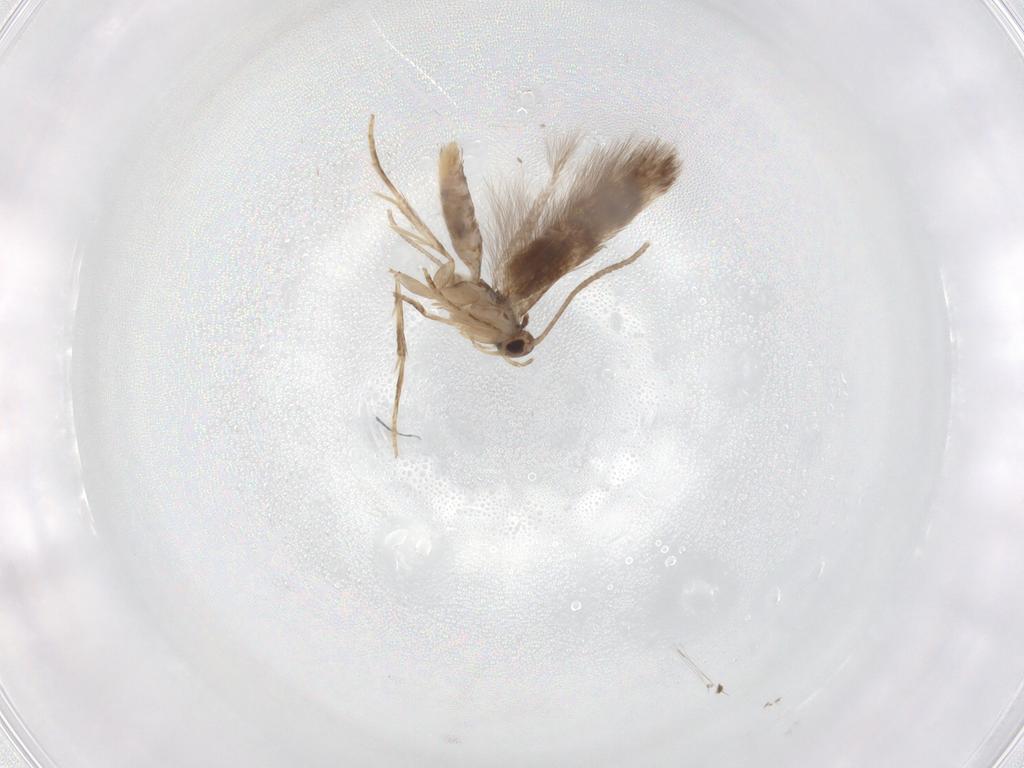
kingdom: Animalia
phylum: Arthropoda
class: Insecta
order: Lepidoptera
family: Elachistidae
